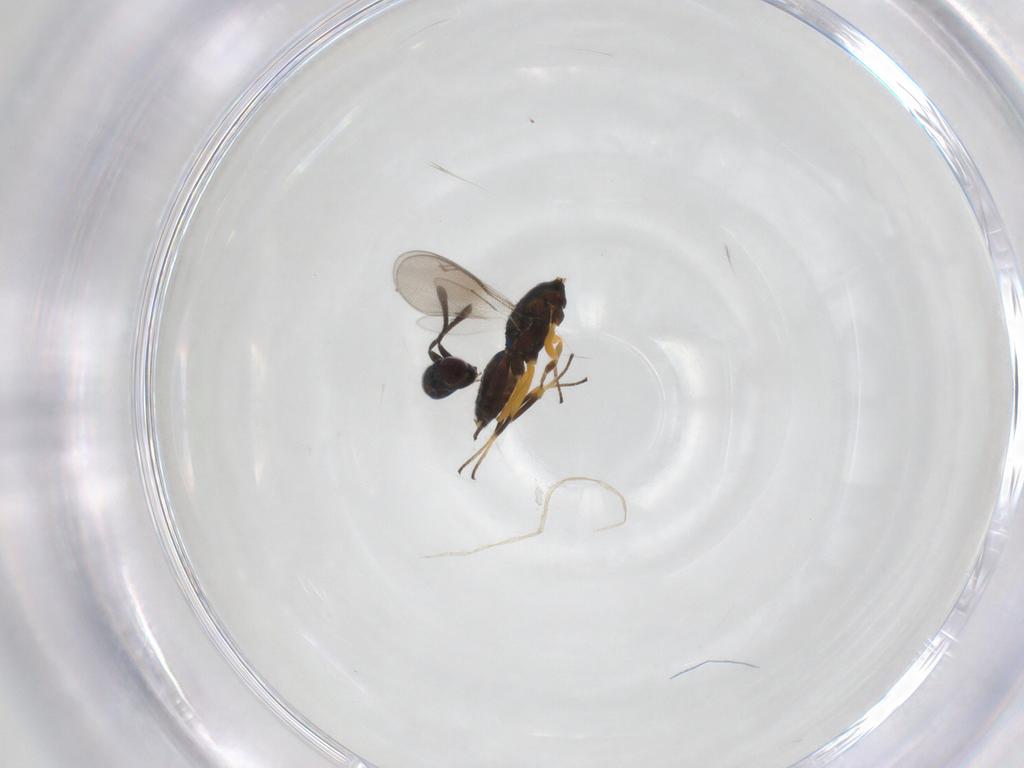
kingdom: Animalia
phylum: Arthropoda
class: Insecta
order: Hymenoptera
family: Eupelmidae
